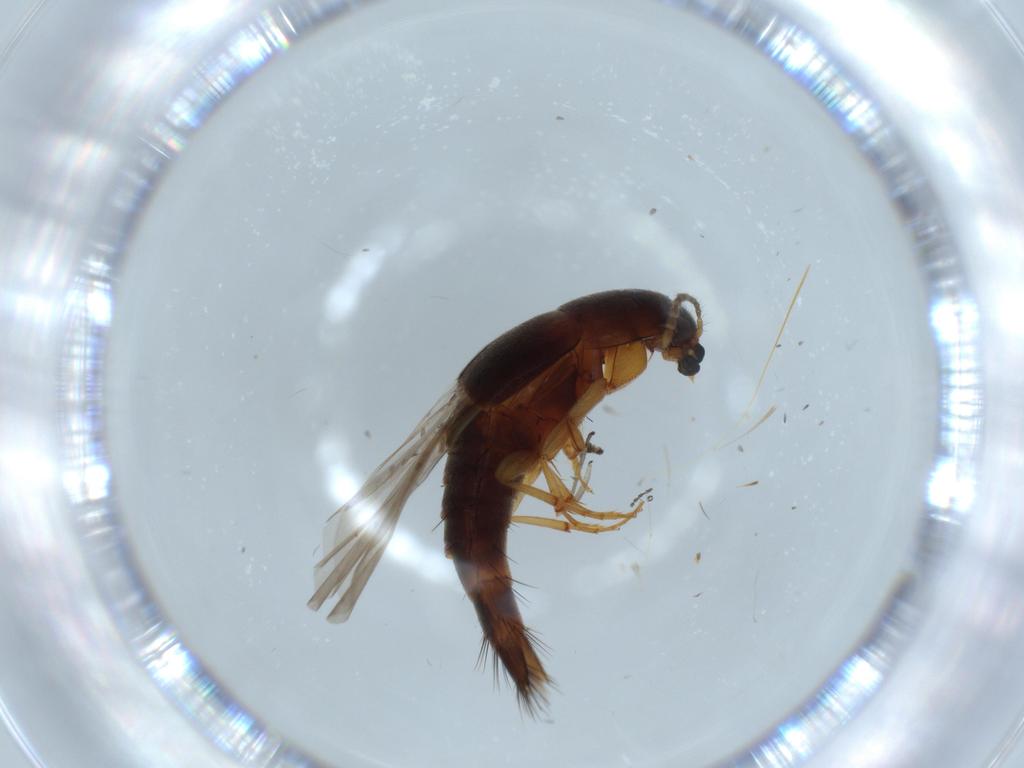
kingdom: Animalia
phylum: Arthropoda
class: Insecta
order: Coleoptera
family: Staphylinidae
